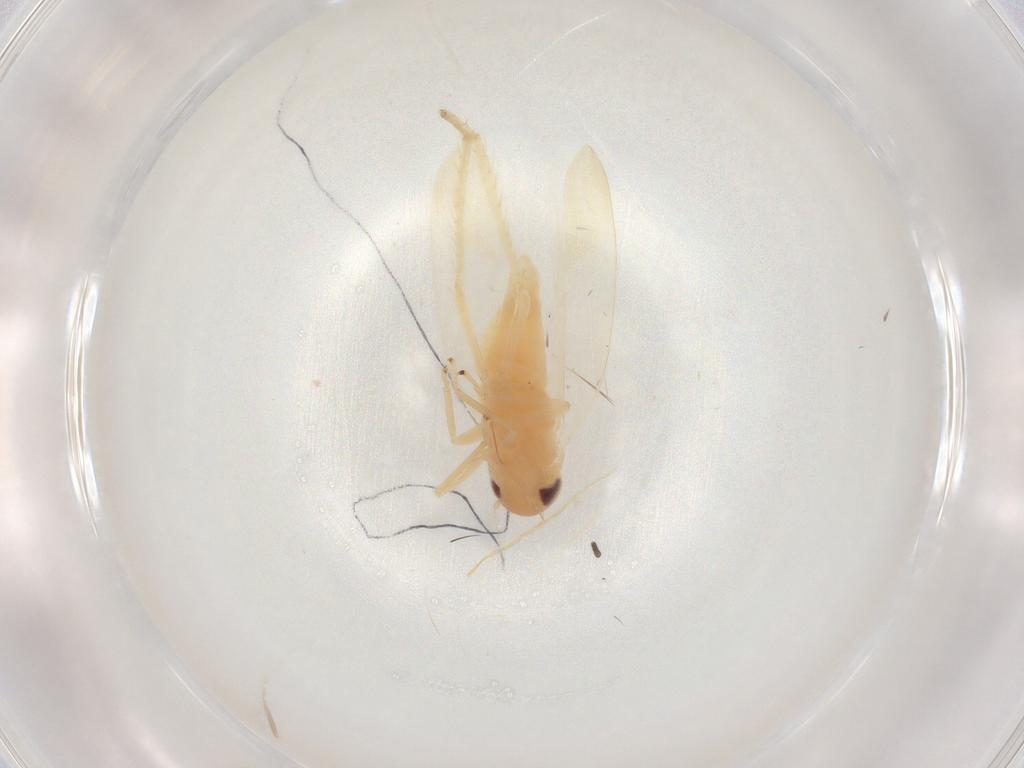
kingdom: Animalia
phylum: Arthropoda
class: Insecta
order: Hemiptera
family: Cicadellidae
